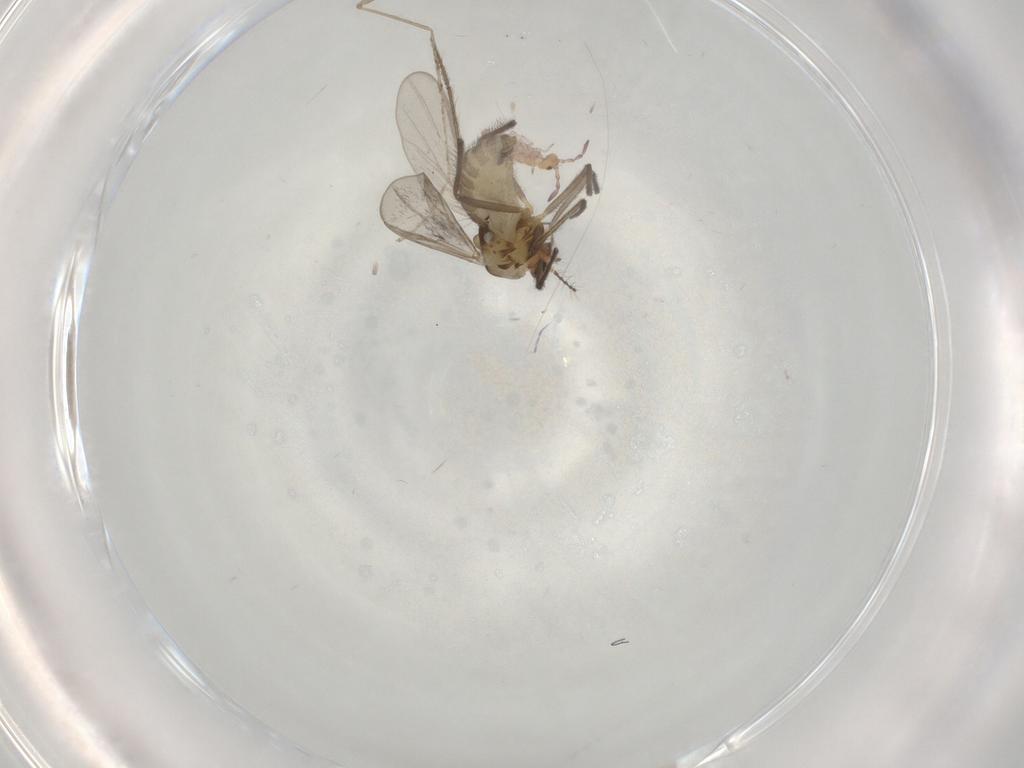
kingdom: Animalia
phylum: Arthropoda
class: Insecta
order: Diptera
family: Chironomidae
